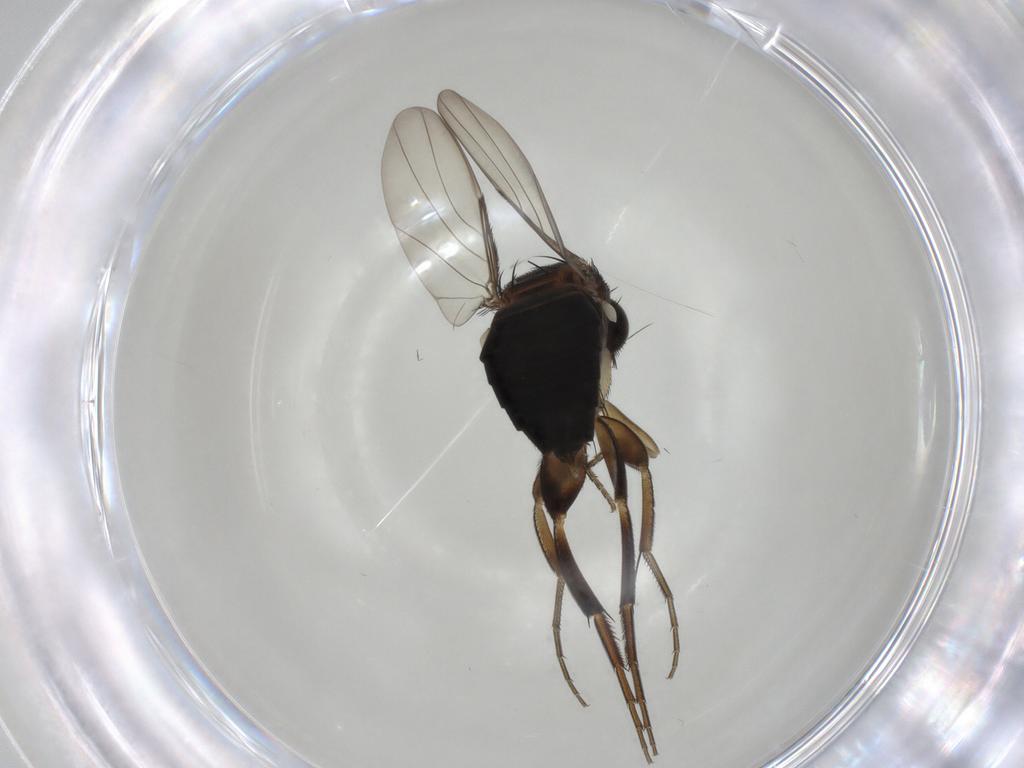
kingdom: Animalia
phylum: Arthropoda
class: Insecta
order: Diptera
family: Phoridae
